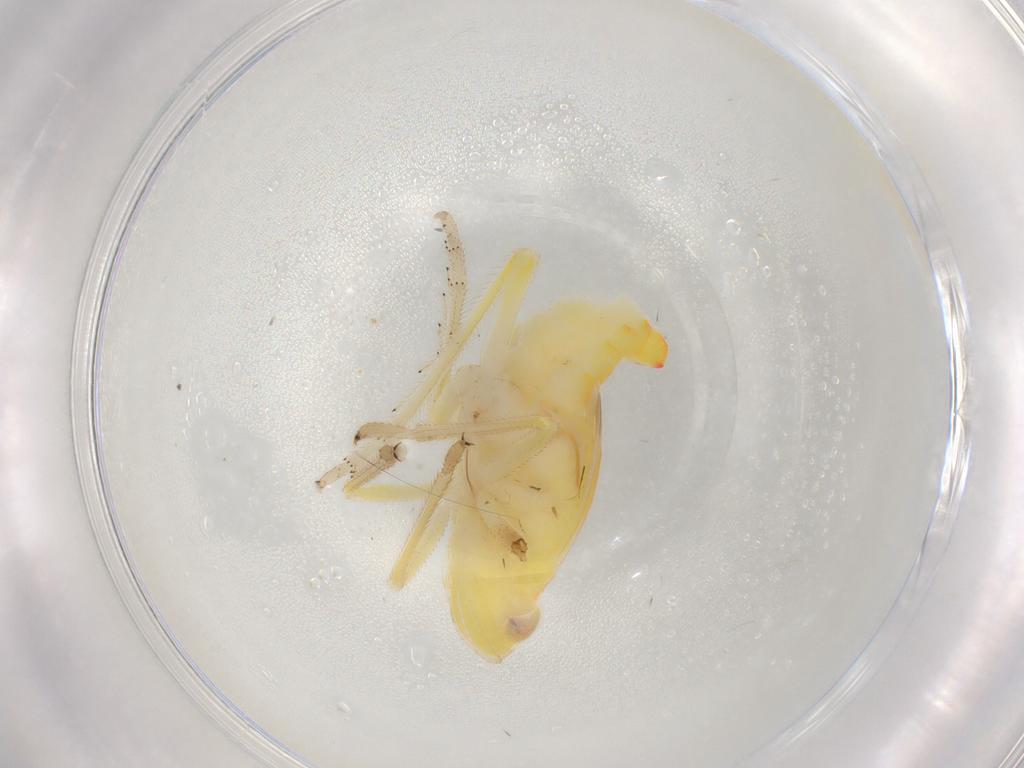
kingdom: Animalia
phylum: Arthropoda
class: Insecta
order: Hemiptera
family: Tropiduchidae
